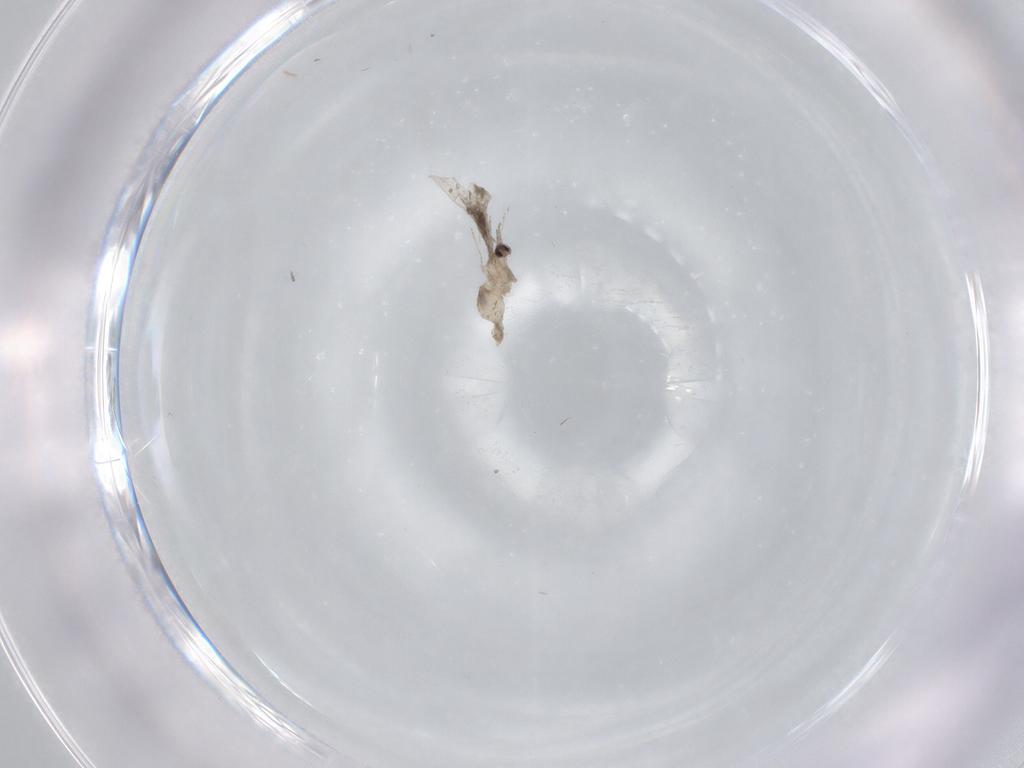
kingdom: Animalia
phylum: Arthropoda
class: Insecta
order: Diptera
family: Cecidomyiidae
